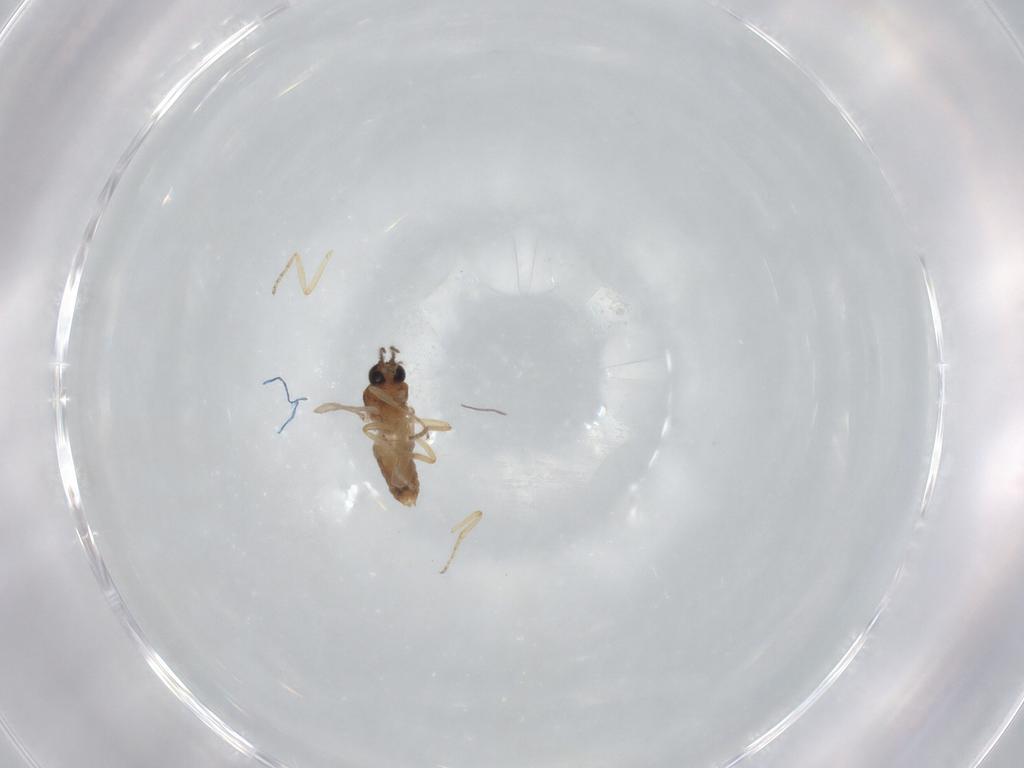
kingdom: Animalia
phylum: Arthropoda
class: Insecta
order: Diptera
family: Ceratopogonidae
